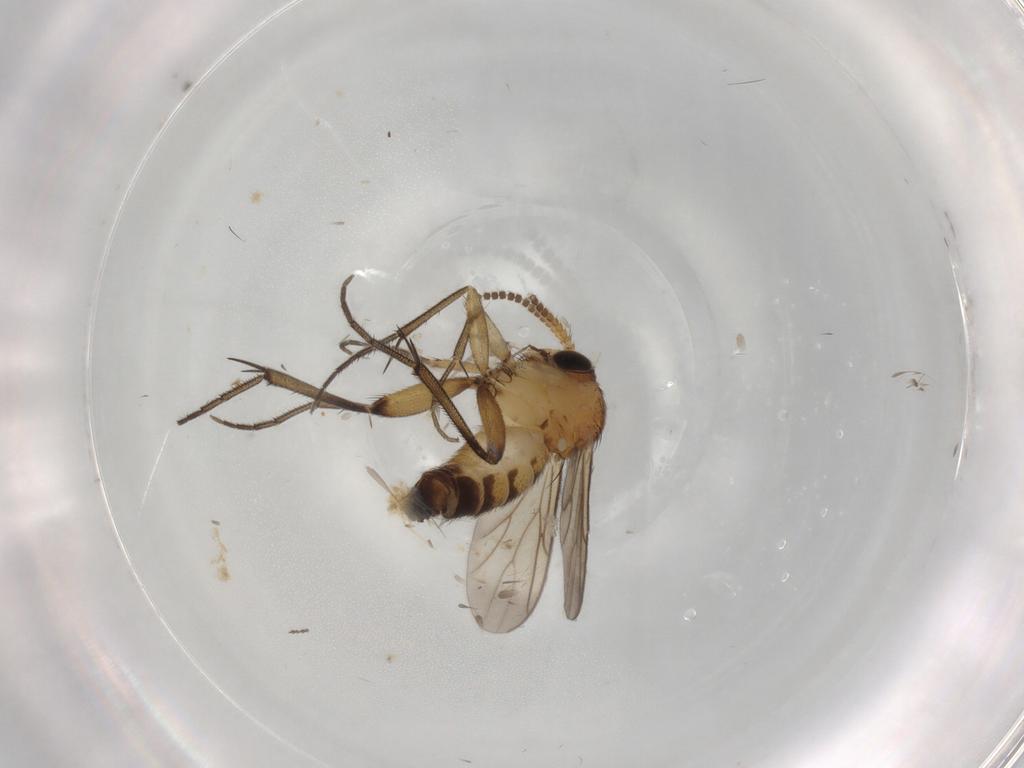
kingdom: Animalia
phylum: Arthropoda
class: Insecta
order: Diptera
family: Mycetophilidae
